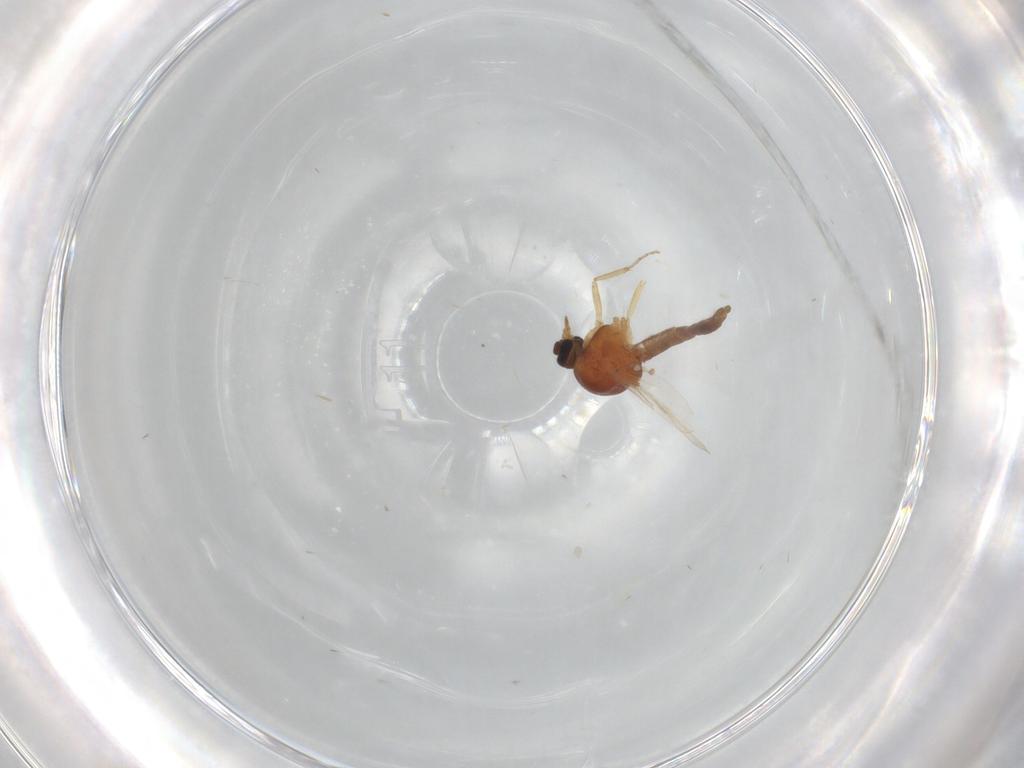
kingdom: Animalia
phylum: Arthropoda
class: Insecta
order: Diptera
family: Ceratopogonidae
